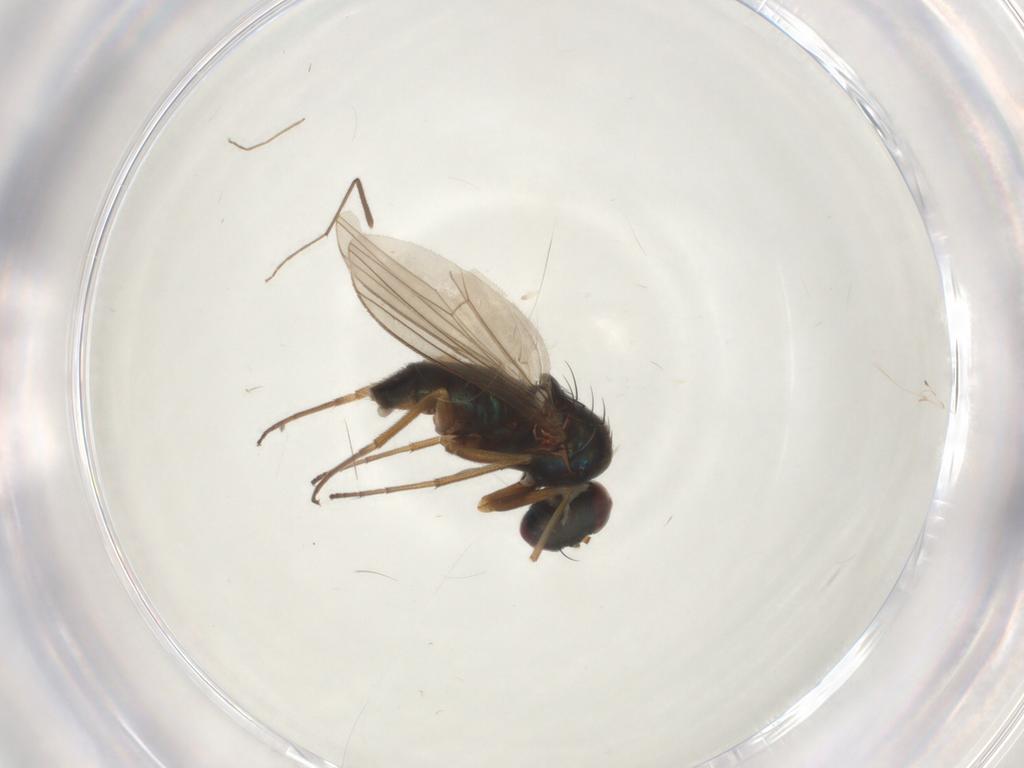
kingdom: Animalia
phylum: Arthropoda
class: Insecta
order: Diptera
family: Dolichopodidae
